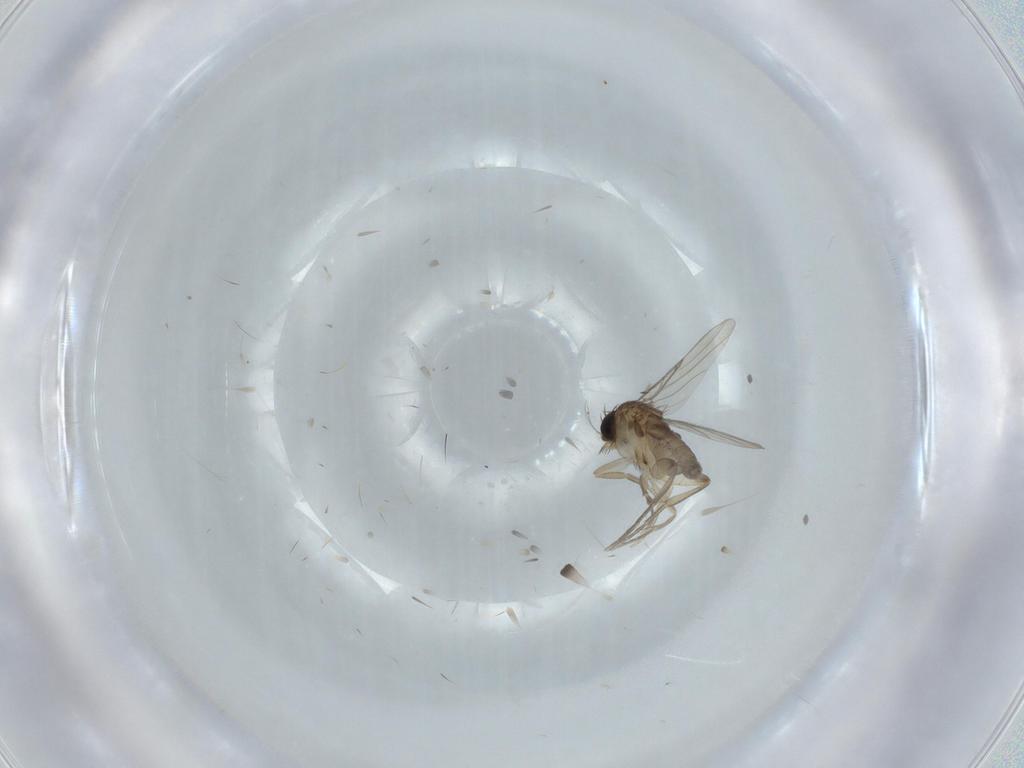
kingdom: Animalia
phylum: Arthropoda
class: Insecta
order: Diptera
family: Phoridae
